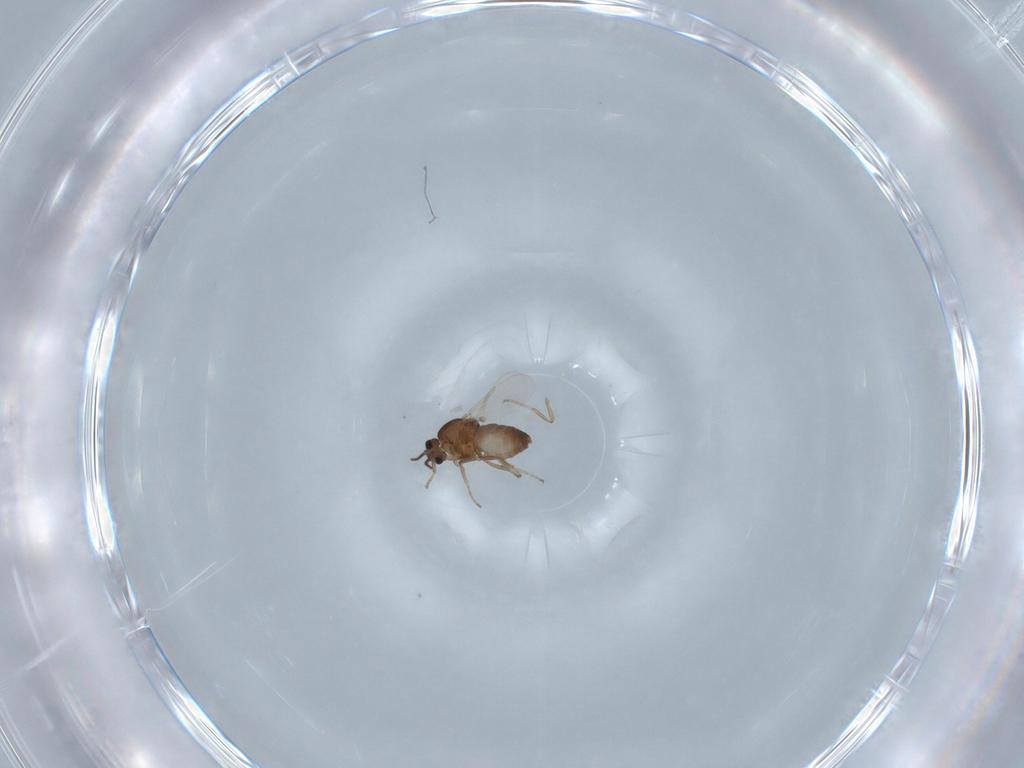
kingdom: Animalia
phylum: Arthropoda
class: Insecta
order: Diptera
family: Ceratopogonidae
